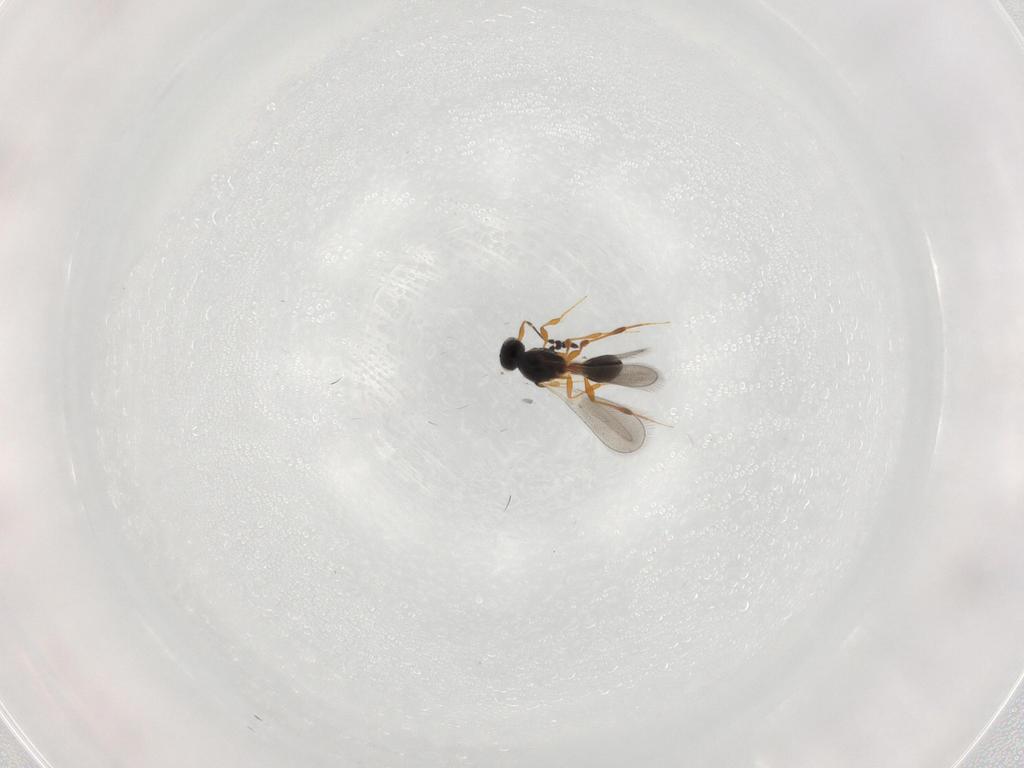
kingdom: Animalia
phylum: Arthropoda
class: Insecta
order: Hymenoptera
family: Platygastridae
